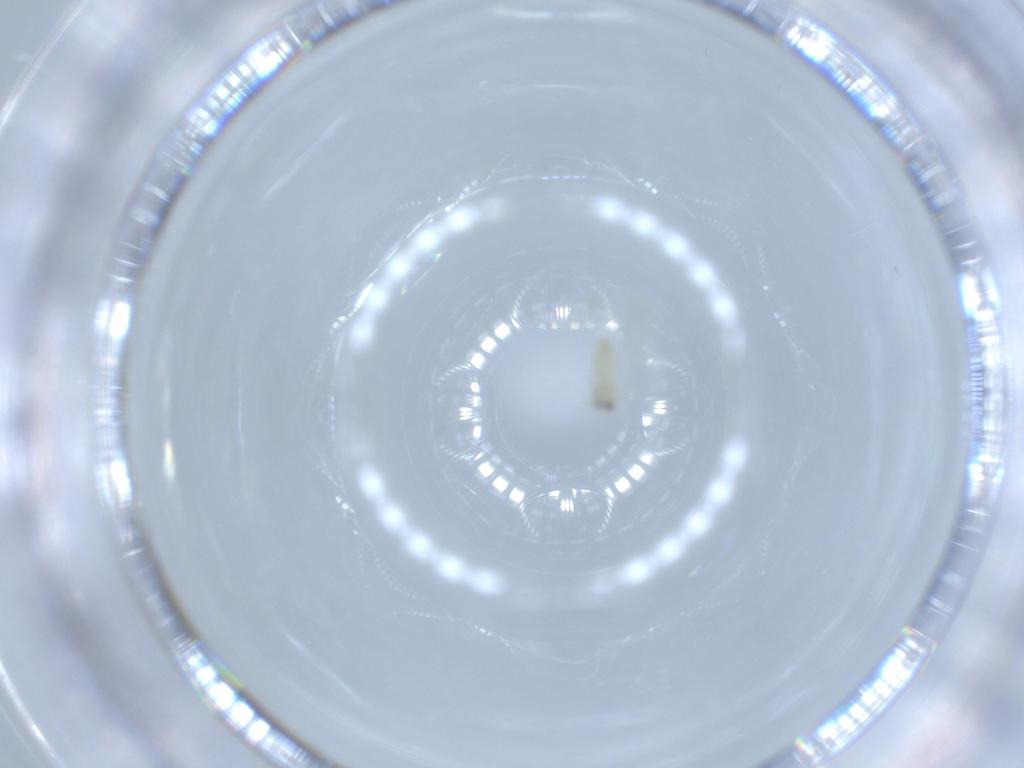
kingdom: Animalia
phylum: Arthropoda
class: Insecta
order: Hemiptera
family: Aleyrodidae
